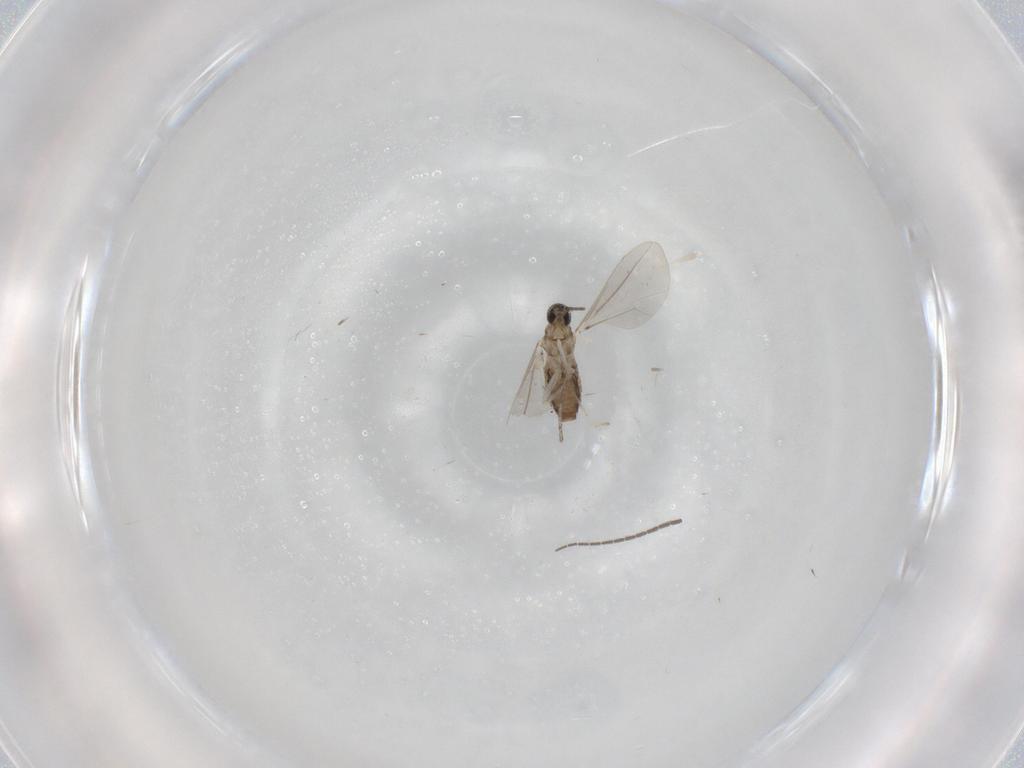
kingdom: Animalia
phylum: Arthropoda
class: Insecta
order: Diptera
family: Cecidomyiidae
